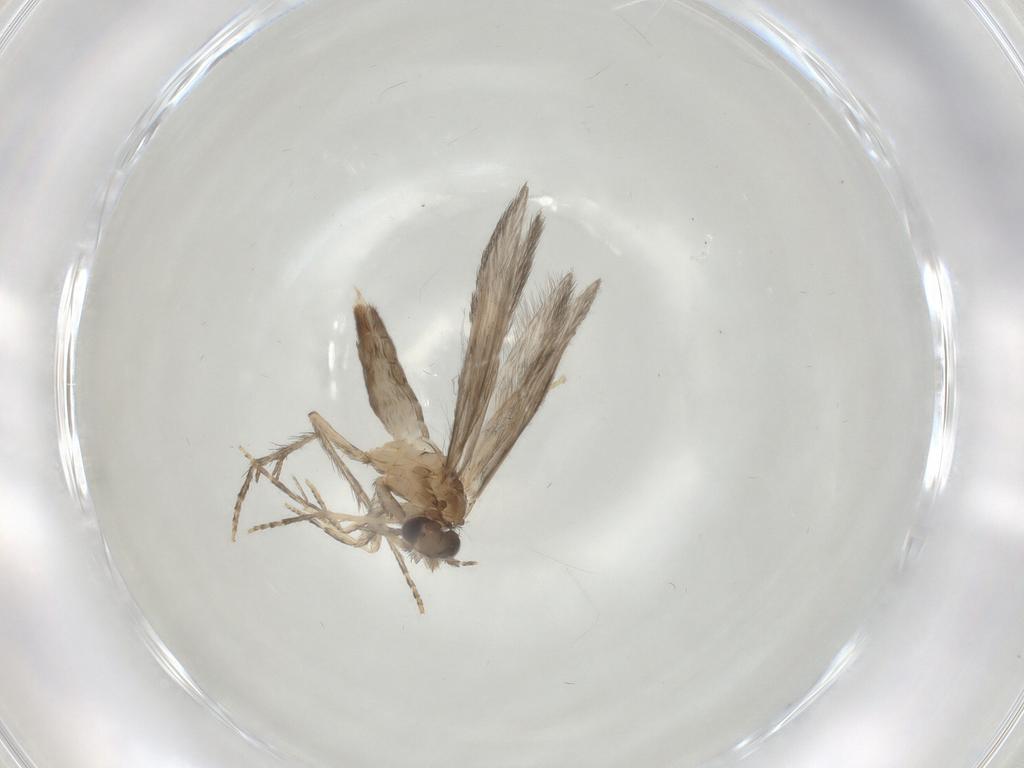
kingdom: Animalia
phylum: Arthropoda
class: Insecta
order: Trichoptera
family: Hydroptilidae
